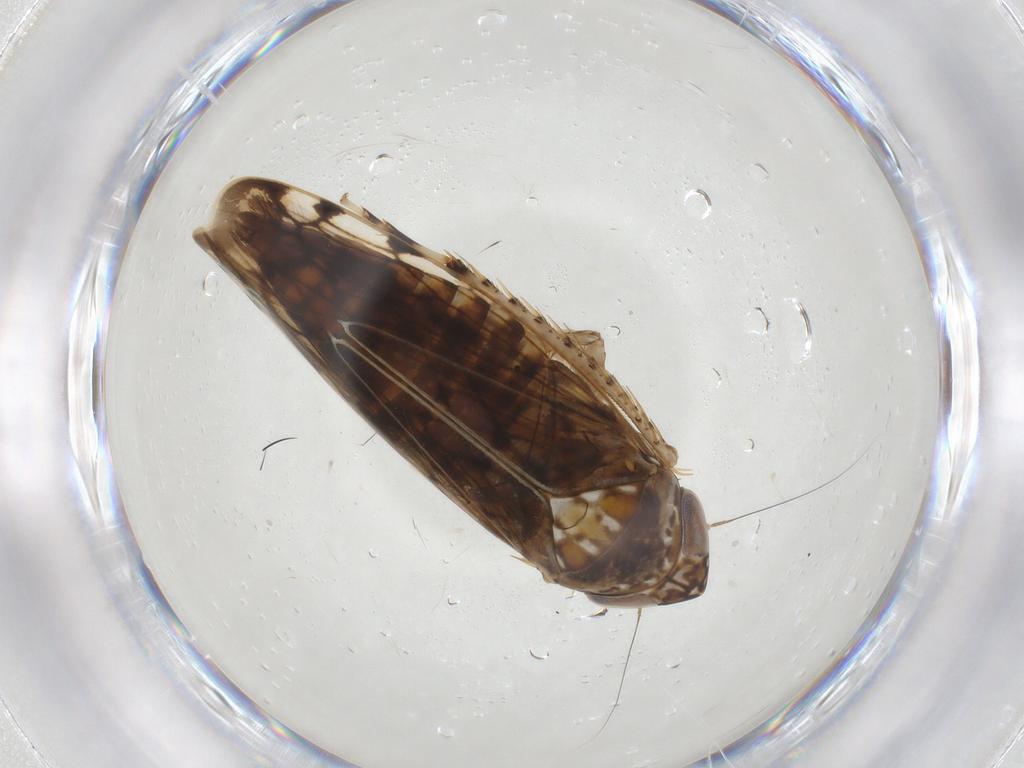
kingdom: Animalia
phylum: Arthropoda
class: Insecta
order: Hemiptera
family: Cicadellidae
